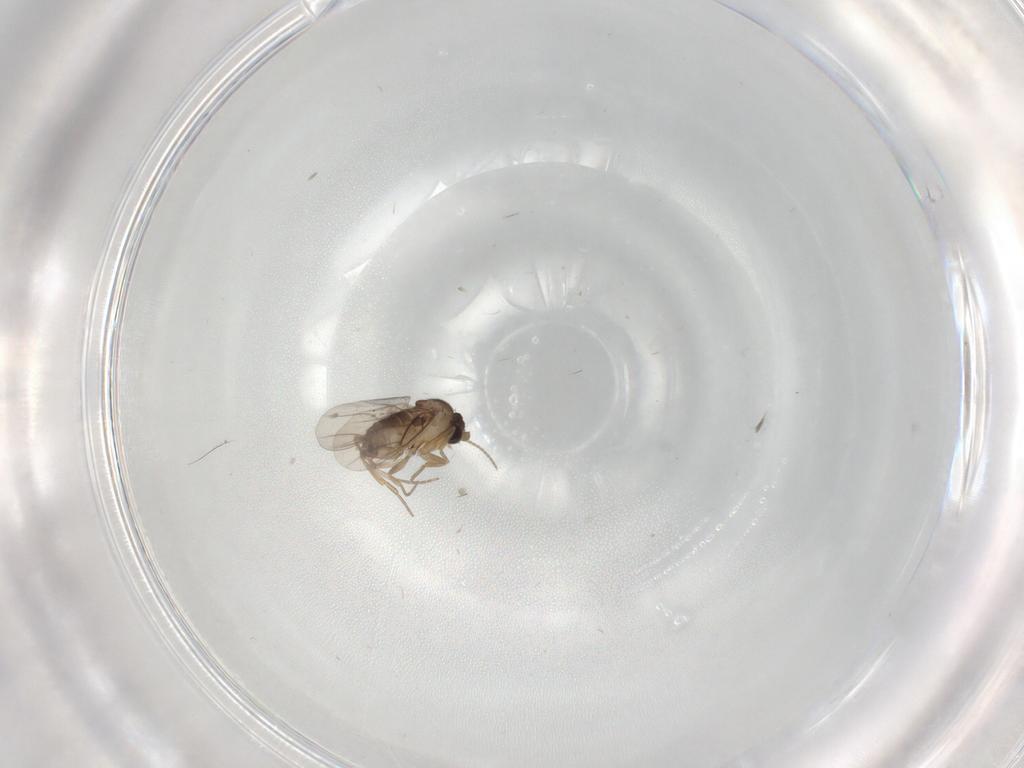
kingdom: Animalia
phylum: Arthropoda
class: Insecta
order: Diptera
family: Phoridae
